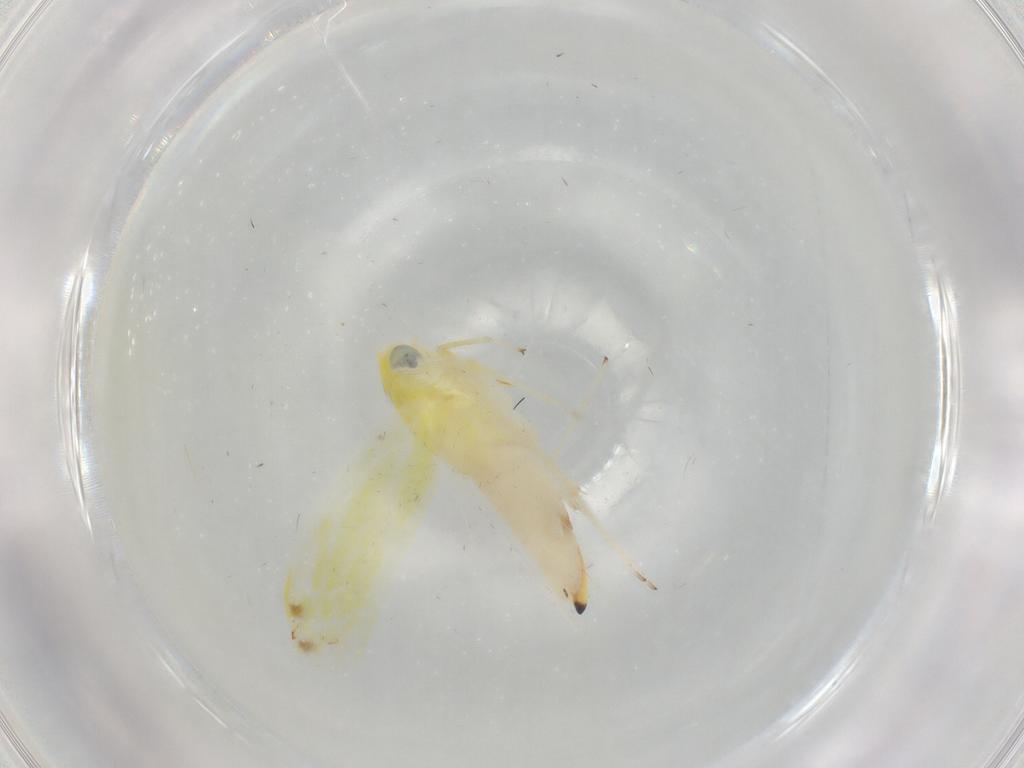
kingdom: Animalia
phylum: Arthropoda
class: Insecta
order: Hemiptera
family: Cicadellidae
